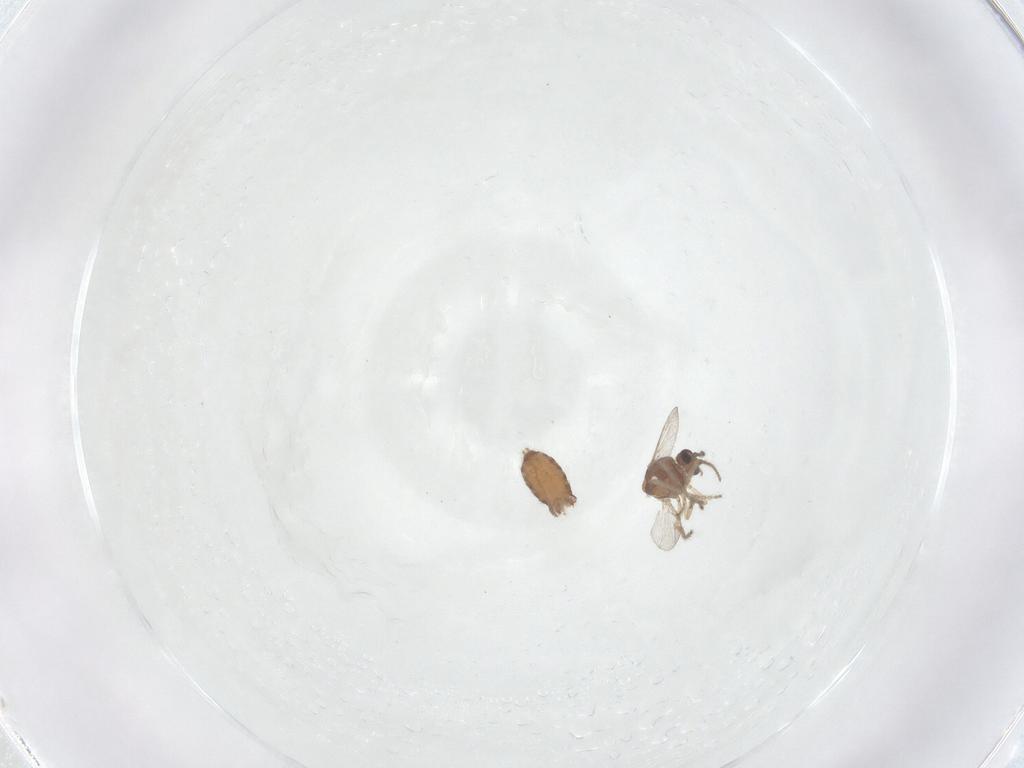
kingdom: Animalia
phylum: Arthropoda
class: Insecta
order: Diptera
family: Ceratopogonidae
